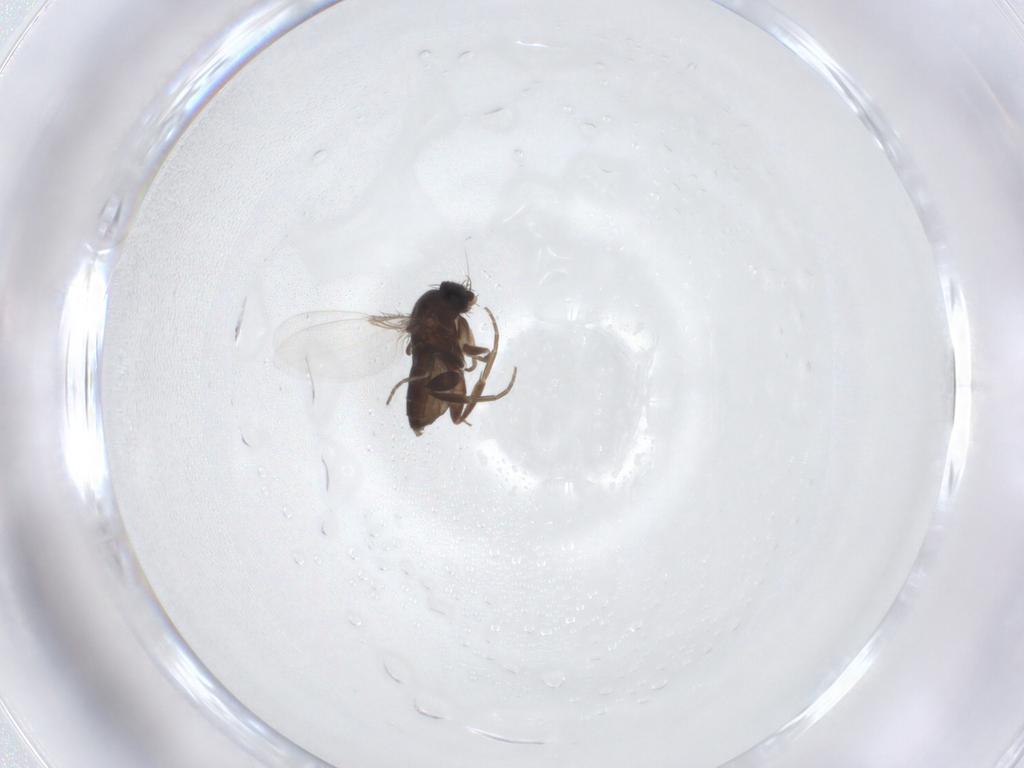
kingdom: Animalia
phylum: Arthropoda
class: Insecta
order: Diptera
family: Phoridae
